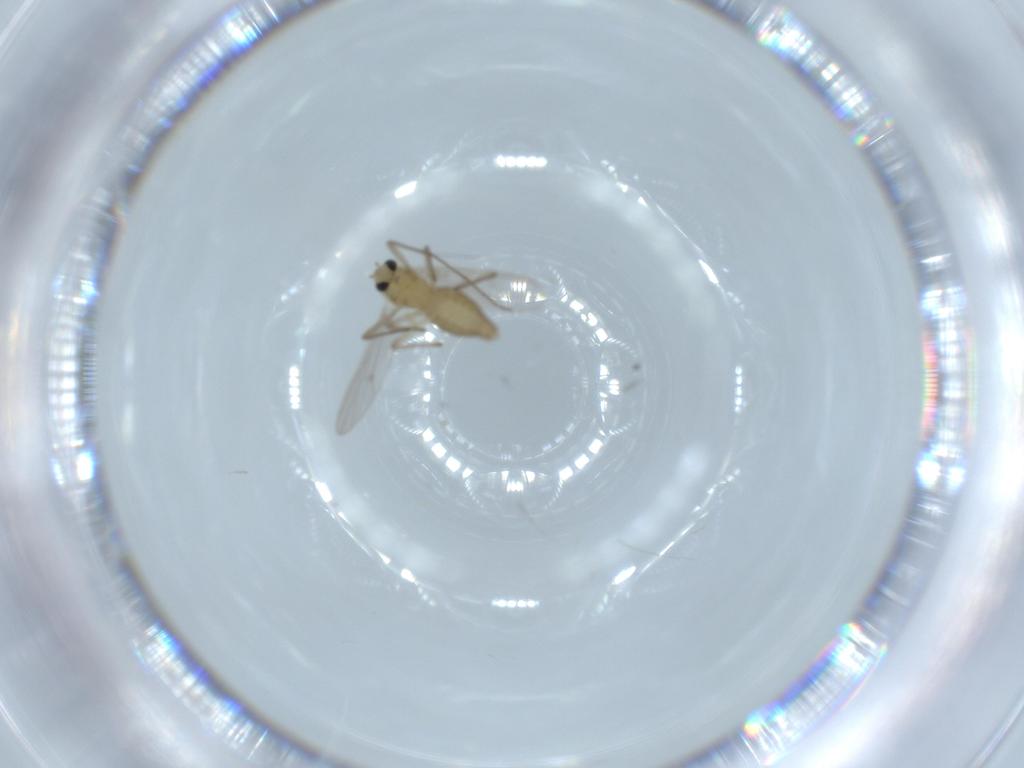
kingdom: Animalia
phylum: Arthropoda
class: Insecta
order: Diptera
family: Chironomidae
